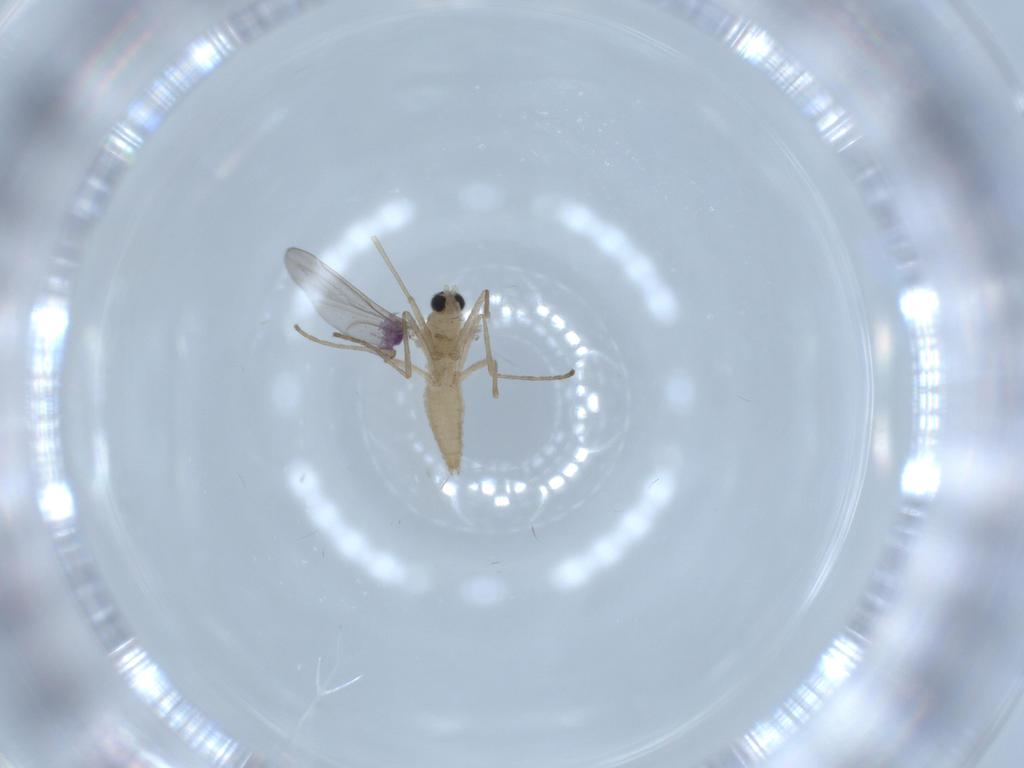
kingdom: Animalia
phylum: Arthropoda
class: Collembola
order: Symphypleona
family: Sminthurididae
